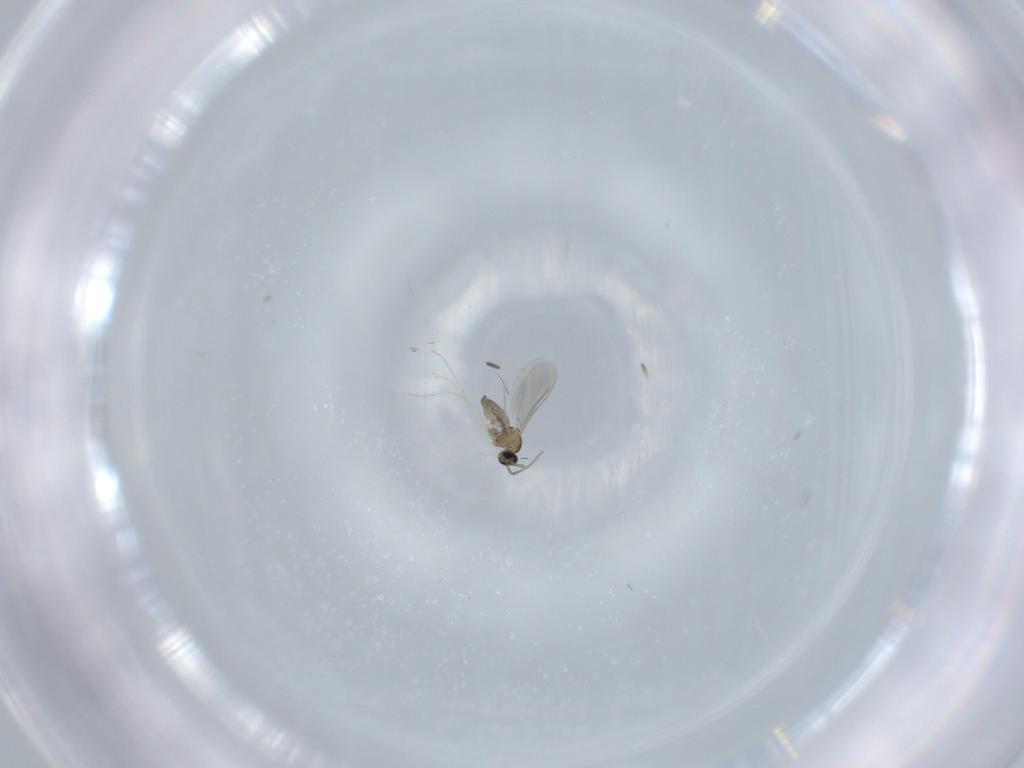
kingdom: Animalia
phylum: Arthropoda
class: Insecta
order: Diptera
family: Cecidomyiidae
